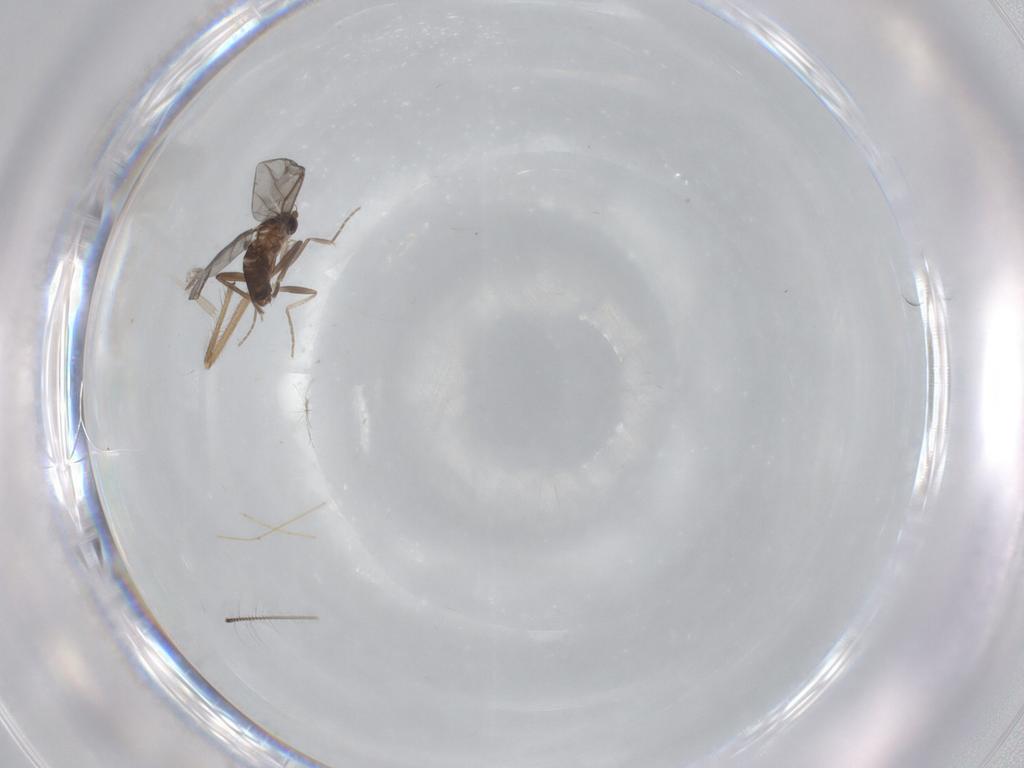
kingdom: Animalia
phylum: Arthropoda
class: Insecta
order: Diptera
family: Chironomidae
